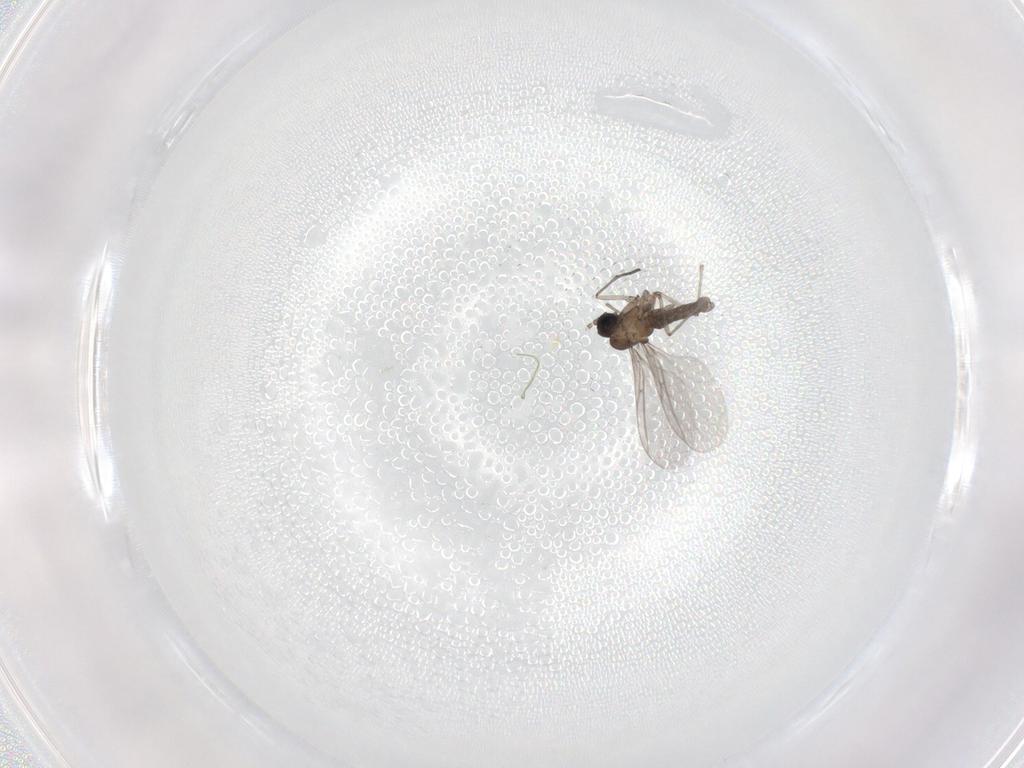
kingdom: Animalia
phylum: Arthropoda
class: Insecta
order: Diptera
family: Sciaridae
